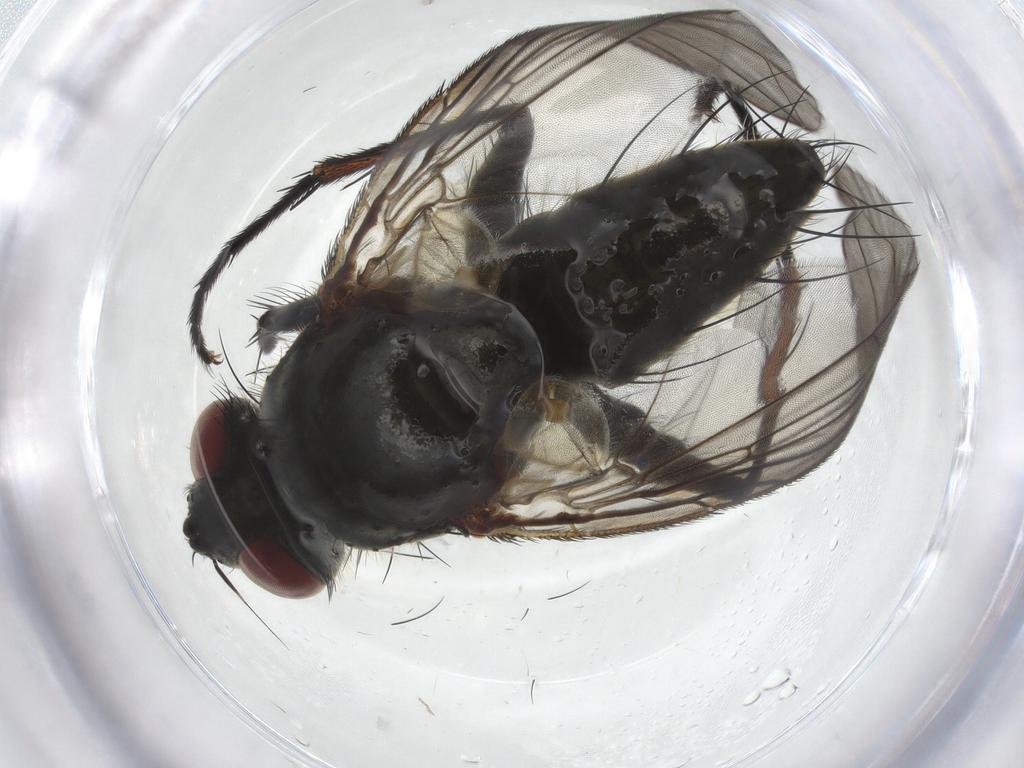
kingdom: Animalia
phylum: Arthropoda
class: Insecta
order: Diptera
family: Tachinidae
